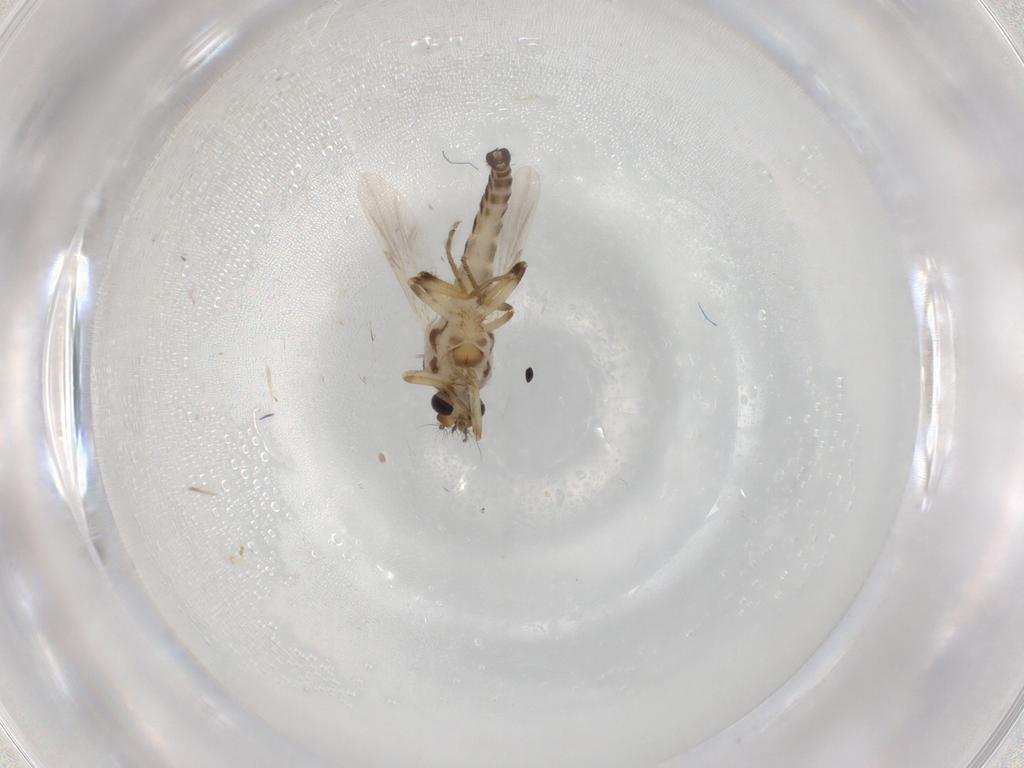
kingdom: Animalia
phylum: Arthropoda
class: Insecta
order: Diptera
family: Ceratopogonidae
